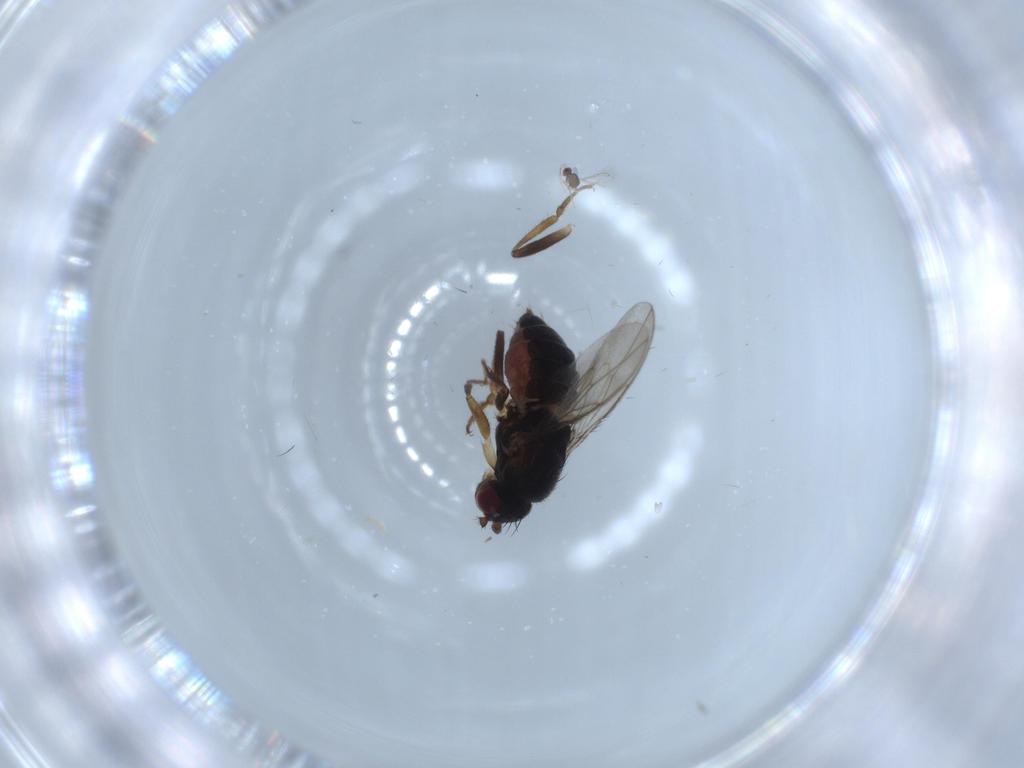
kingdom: Animalia
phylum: Arthropoda
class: Insecta
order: Diptera
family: Sphaeroceridae
